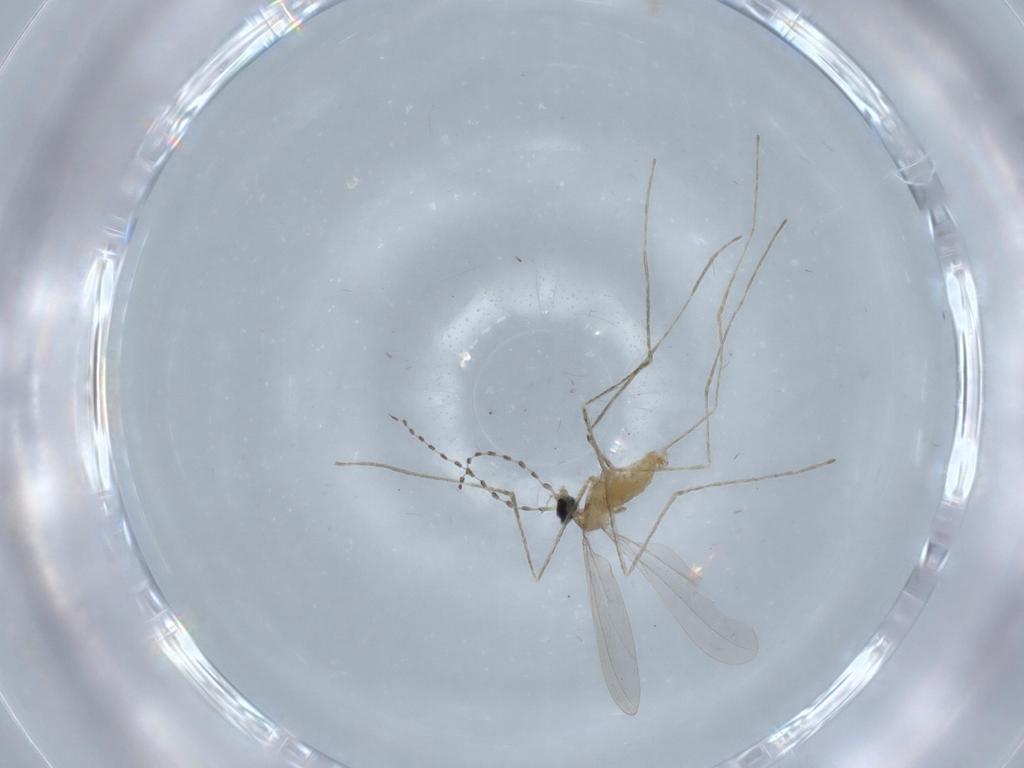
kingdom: Animalia
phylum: Arthropoda
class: Insecta
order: Diptera
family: Cecidomyiidae
